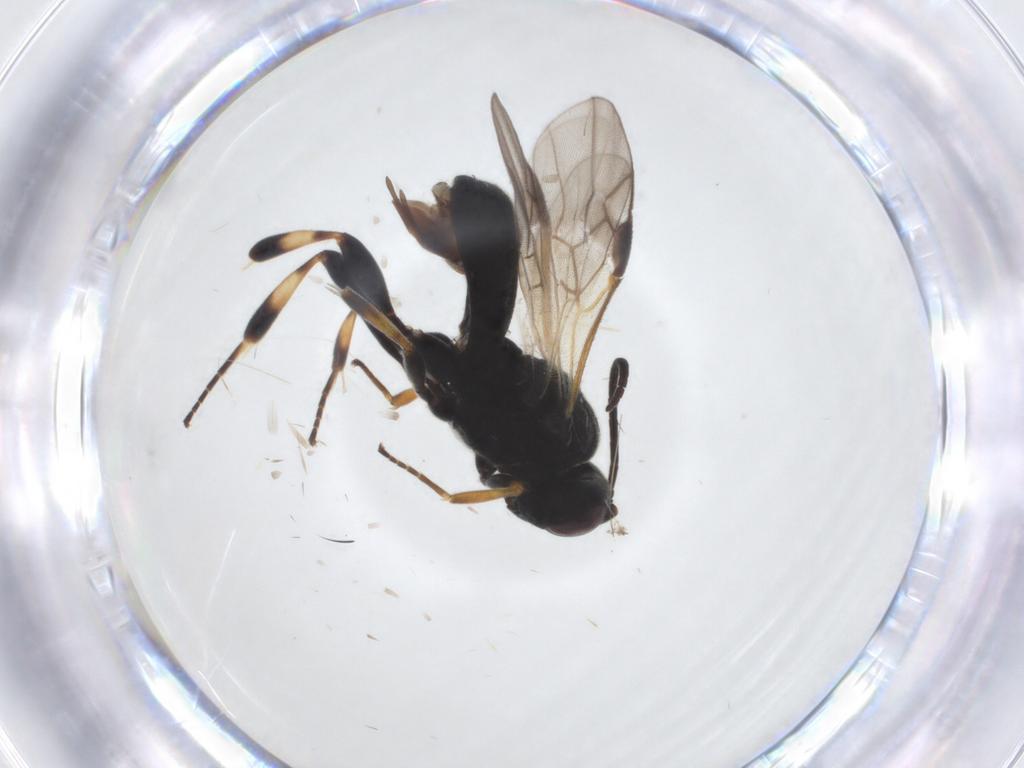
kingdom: Animalia
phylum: Arthropoda
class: Insecta
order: Hymenoptera
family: Braconidae
